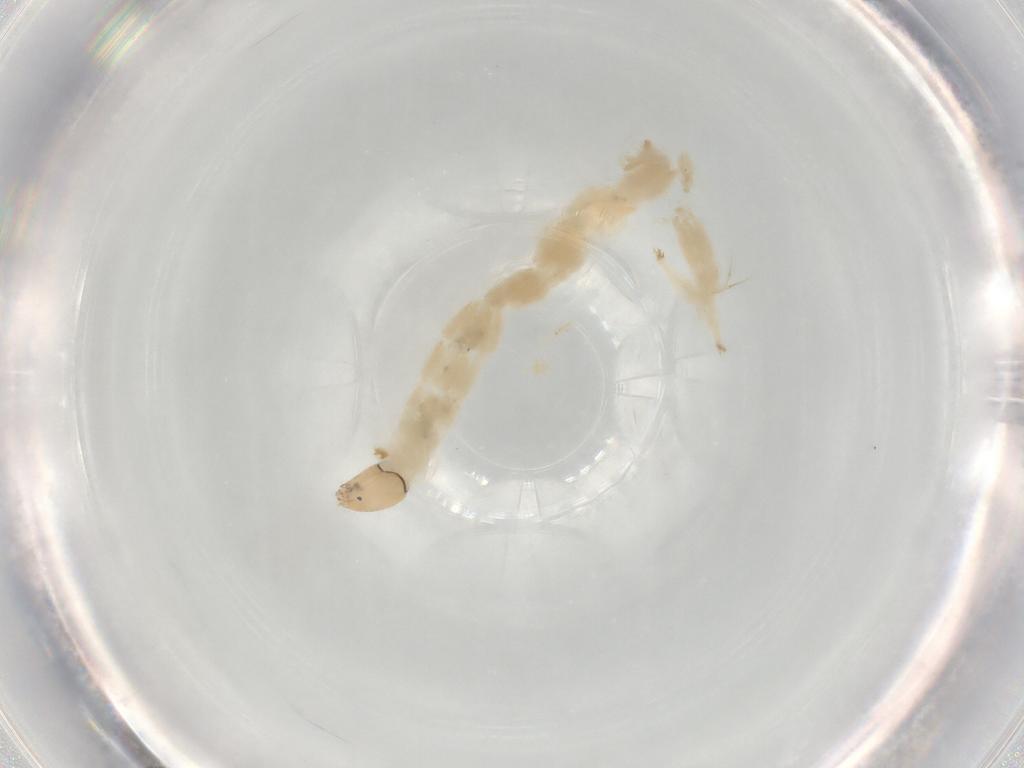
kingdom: Animalia
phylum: Arthropoda
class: Insecta
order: Diptera
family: Chironomidae
